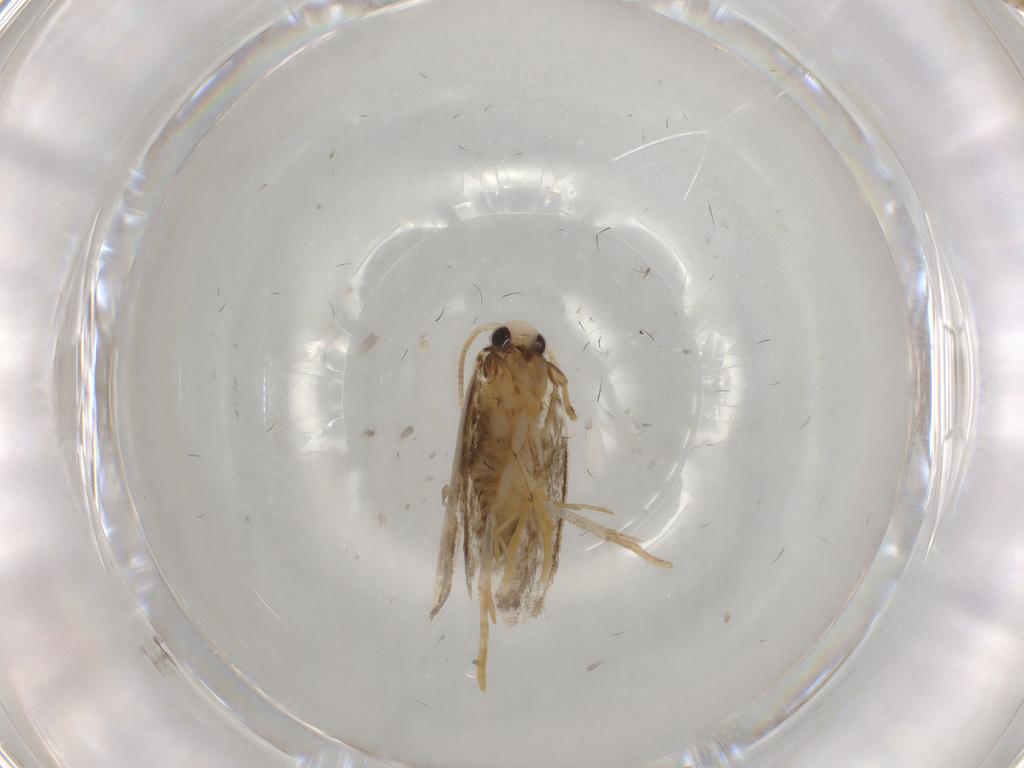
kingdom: Animalia
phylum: Arthropoda
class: Insecta
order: Lepidoptera
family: Psychidae
